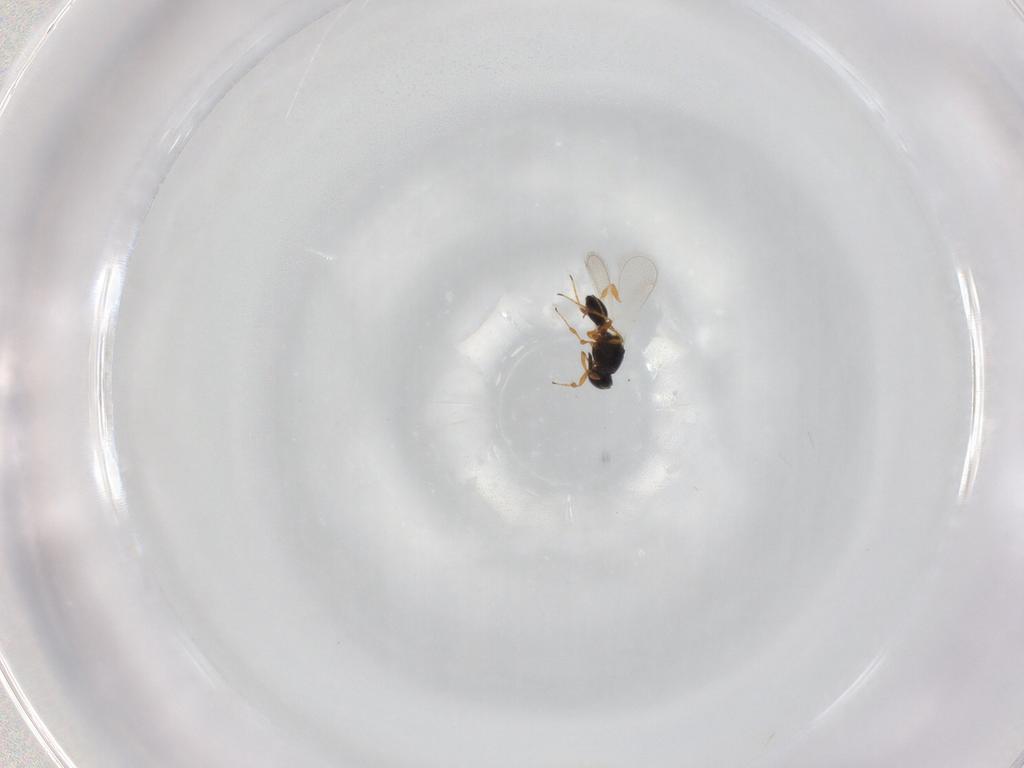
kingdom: Animalia
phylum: Arthropoda
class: Insecta
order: Hemiptera
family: Aleyrodidae
